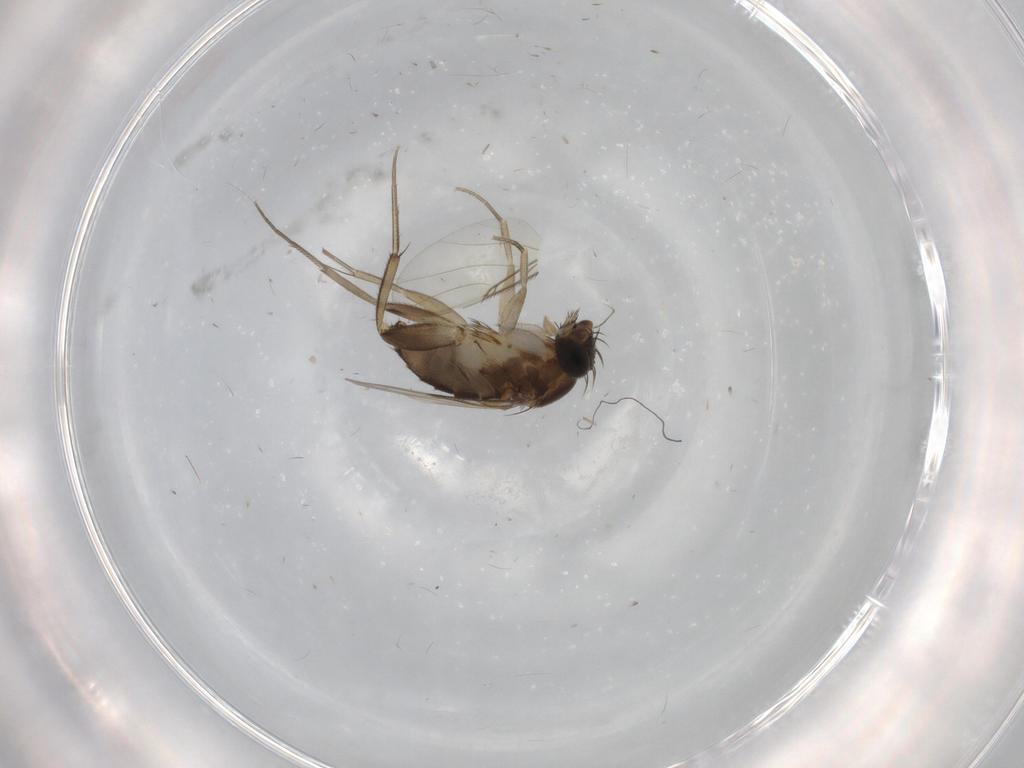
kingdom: Animalia
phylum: Arthropoda
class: Insecta
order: Diptera
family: Phoridae
